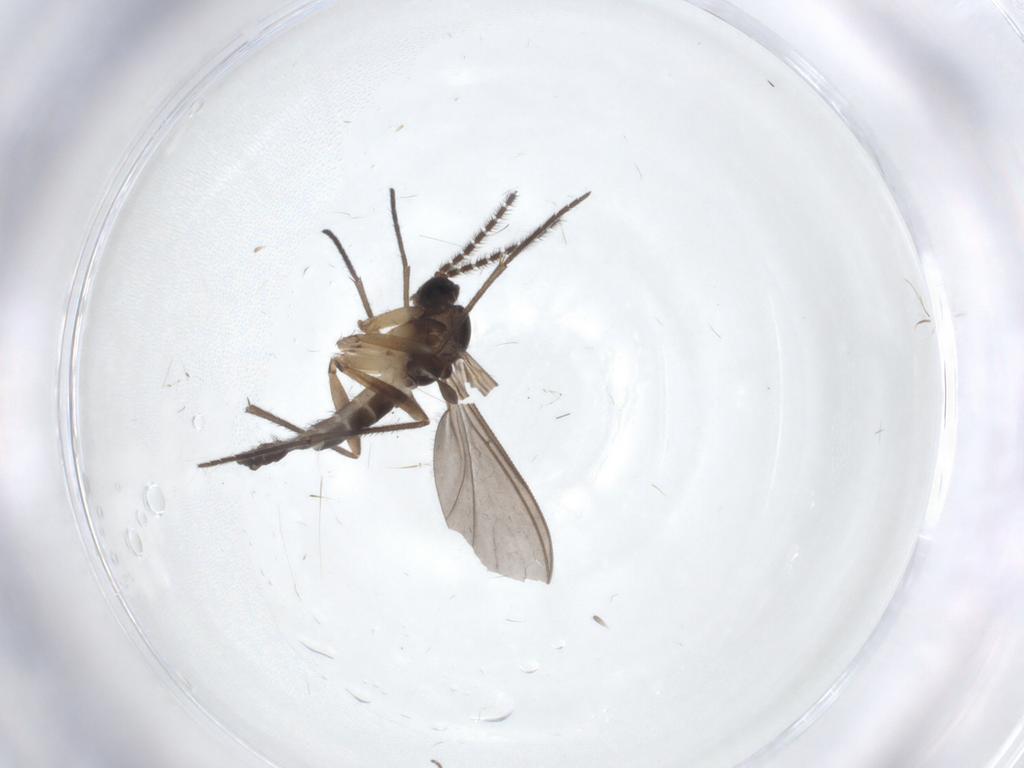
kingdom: Animalia
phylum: Arthropoda
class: Insecta
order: Diptera
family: Sciaridae
